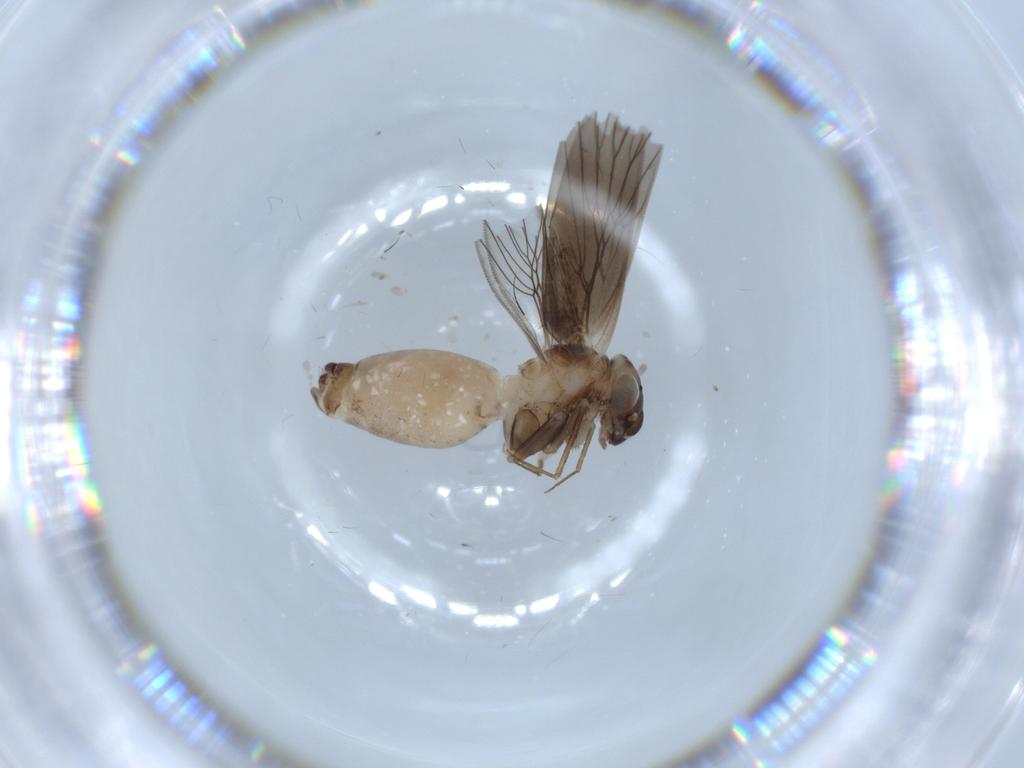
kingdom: Animalia
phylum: Arthropoda
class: Insecta
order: Psocodea
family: Lepidopsocidae
